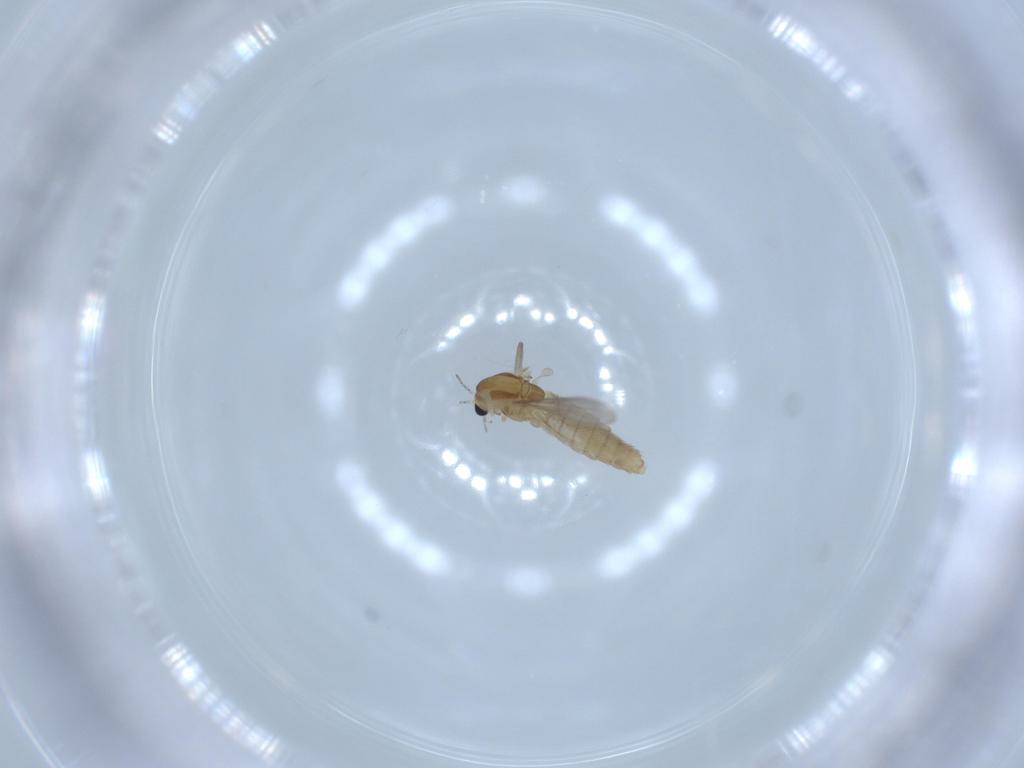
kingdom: Animalia
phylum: Arthropoda
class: Insecta
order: Diptera
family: Chironomidae
